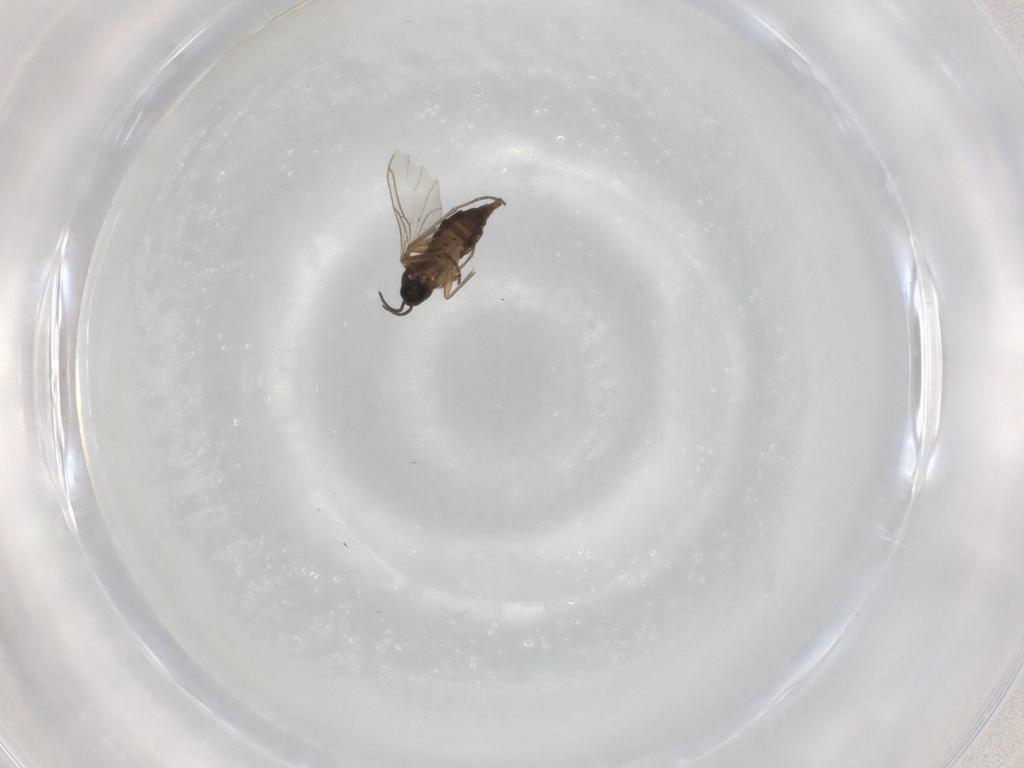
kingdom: Animalia
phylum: Arthropoda
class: Insecta
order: Diptera
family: Sciaridae
